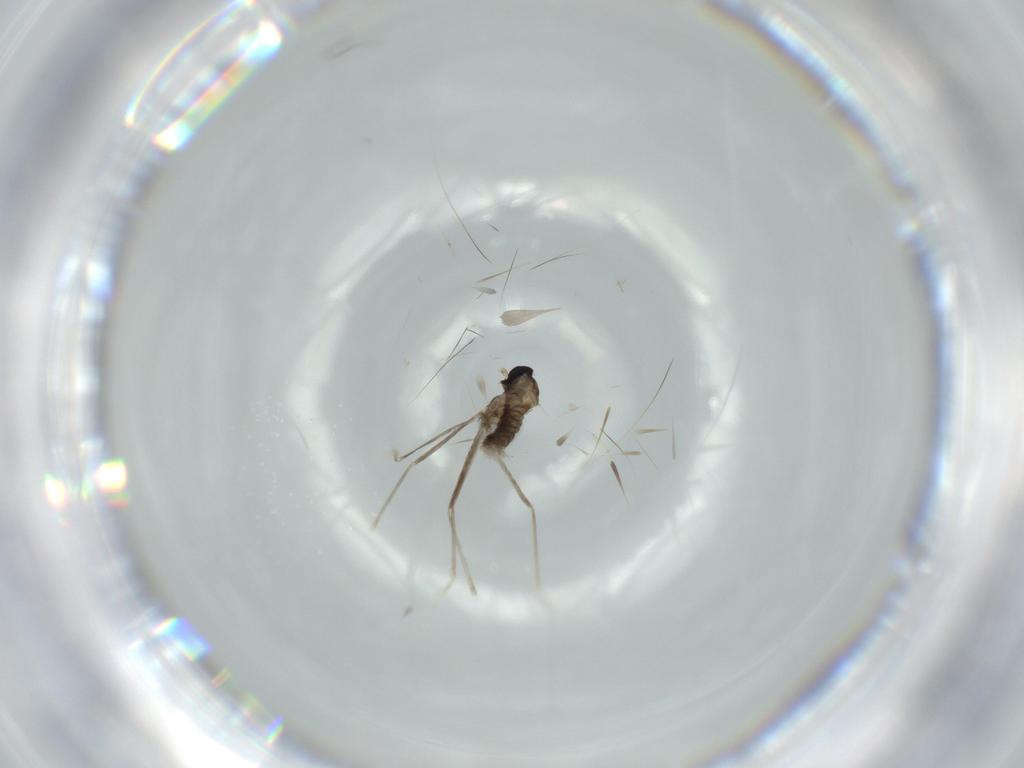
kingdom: Animalia
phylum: Arthropoda
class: Insecta
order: Diptera
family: Cecidomyiidae
